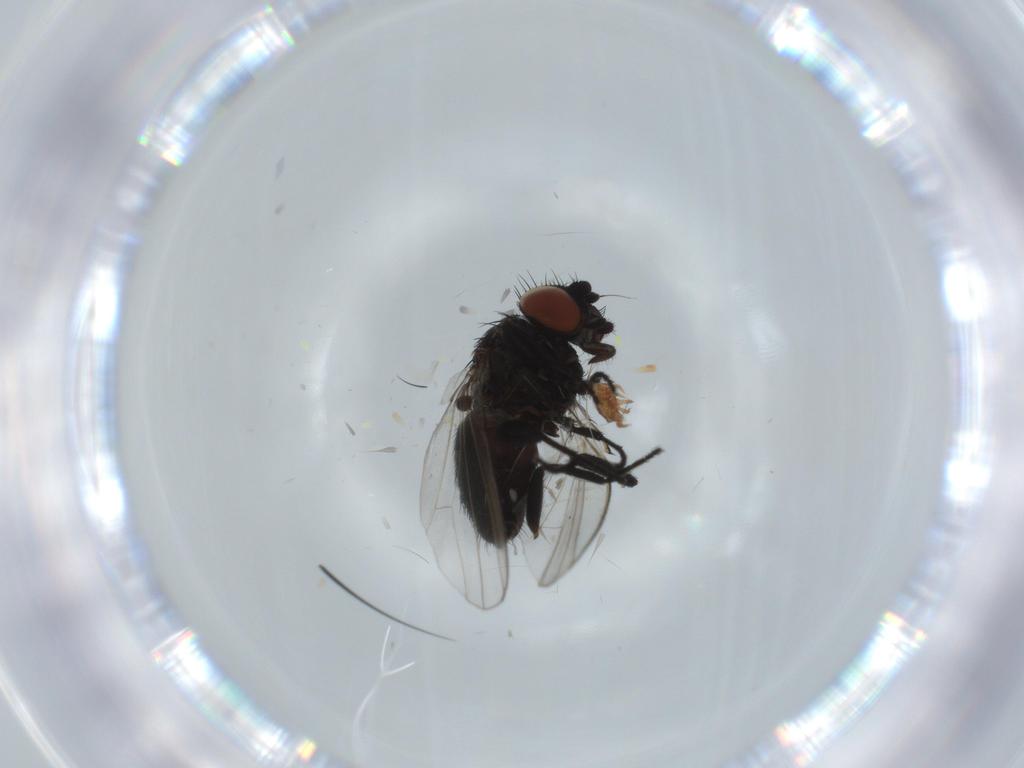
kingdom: Animalia
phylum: Arthropoda
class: Insecta
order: Diptera
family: Milichiidae
